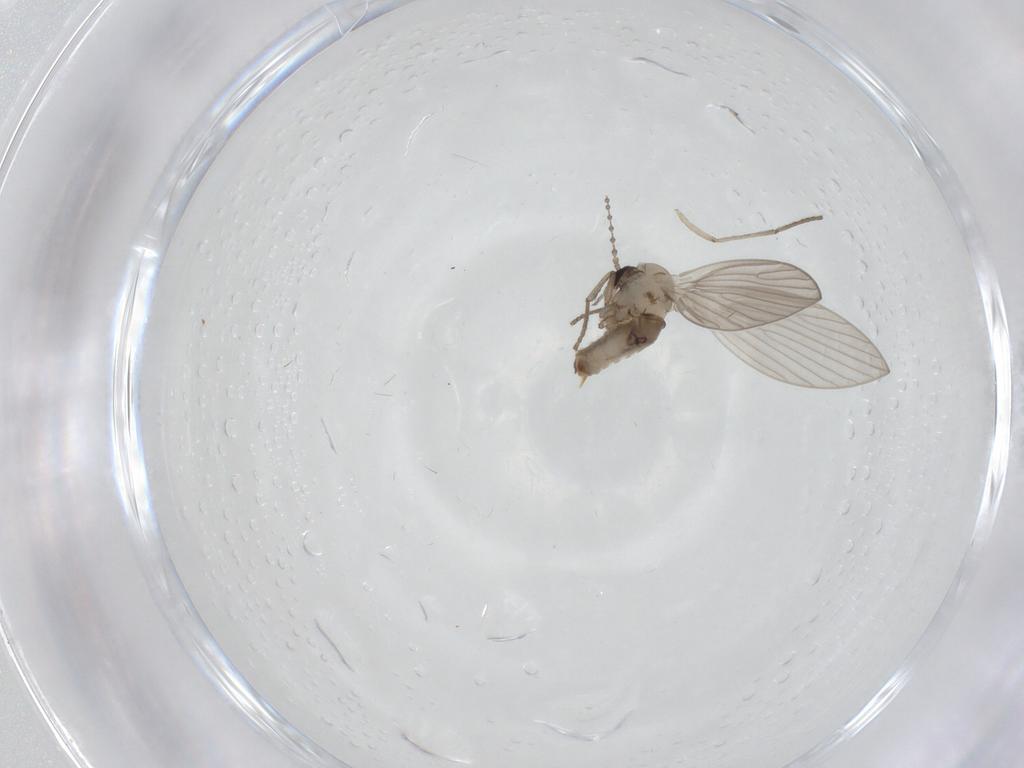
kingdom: Animalia
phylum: Arthropoda
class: Insecta
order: Diptera
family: Psychodidae
